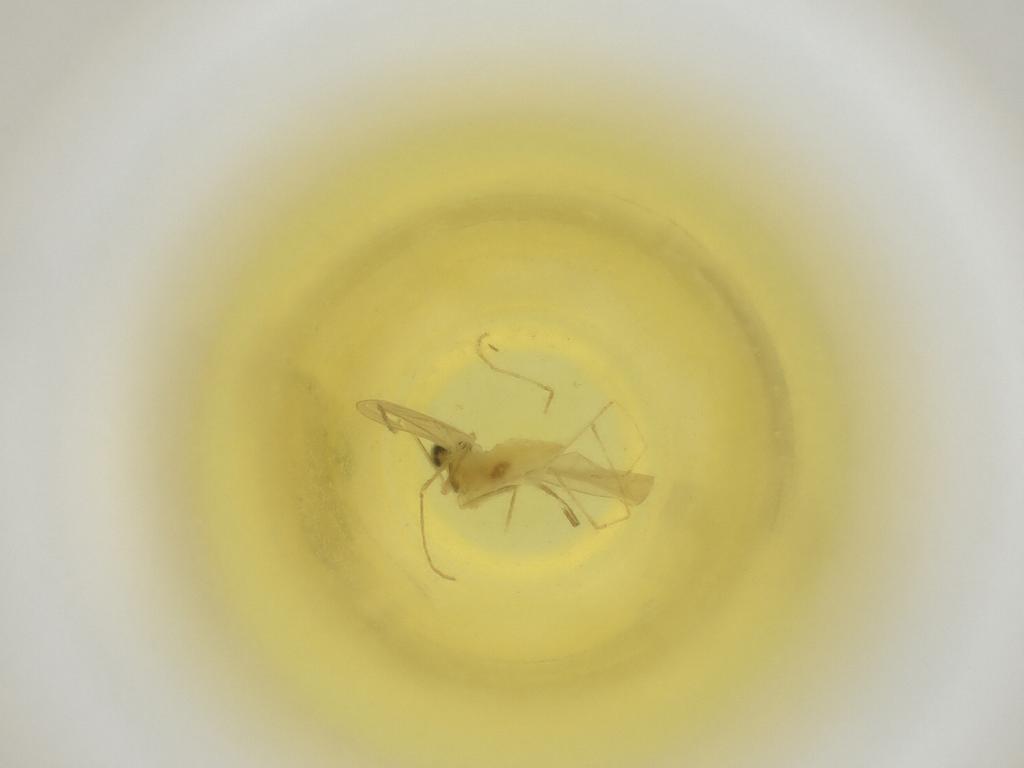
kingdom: Animalia
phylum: Arthropoda
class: Insecta
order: Diptera
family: Cecidomyiidae
